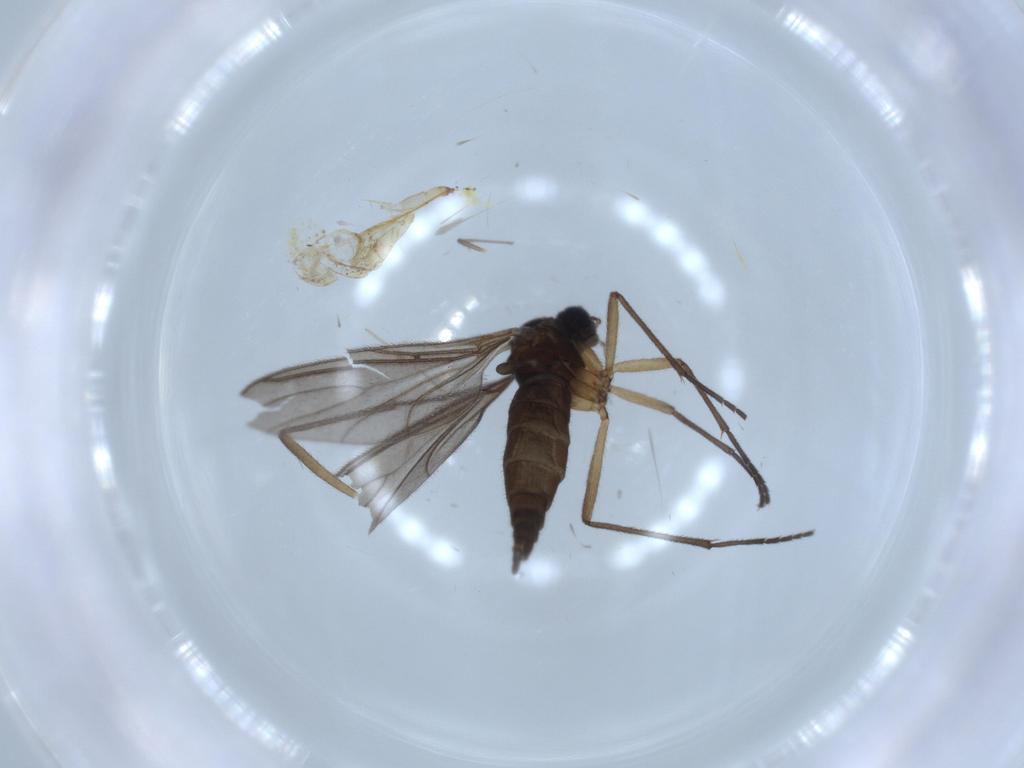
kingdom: Animalia
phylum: Arthropoda
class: Insecta
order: Diptera
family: Sciaridae
